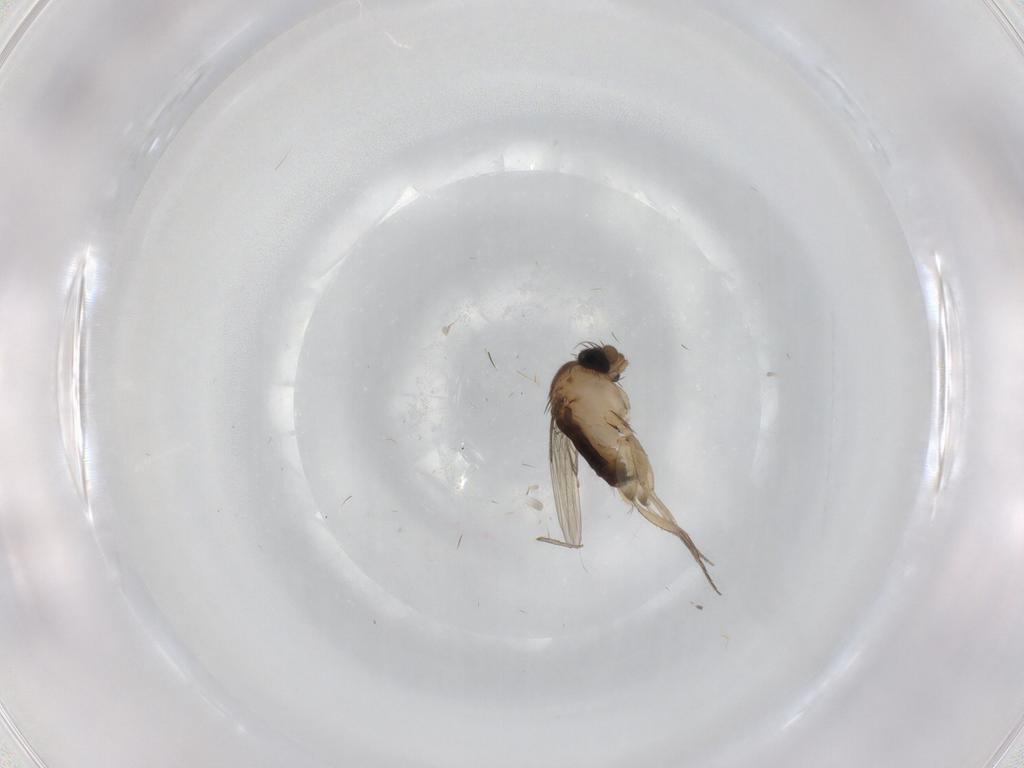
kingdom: Animalia
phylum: Arthropoda
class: Insecta
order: Diptera
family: Phoridae
